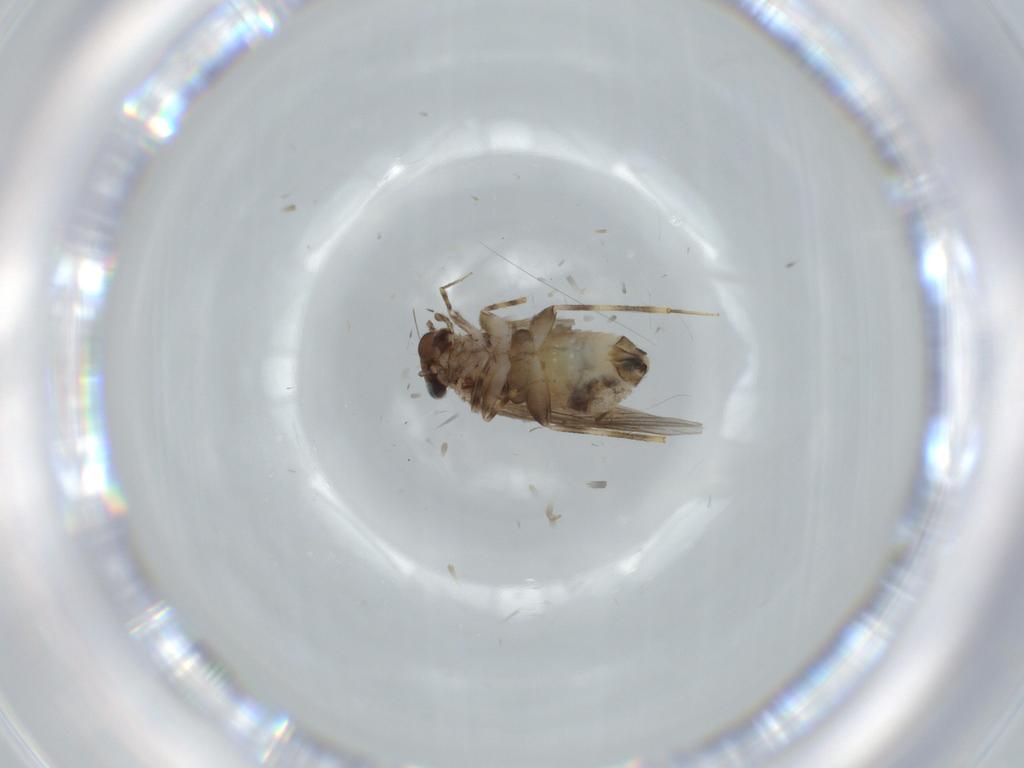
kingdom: Animalia
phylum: Arthropoda
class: Insecta
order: Psocodea
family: Lepidopsocidae
